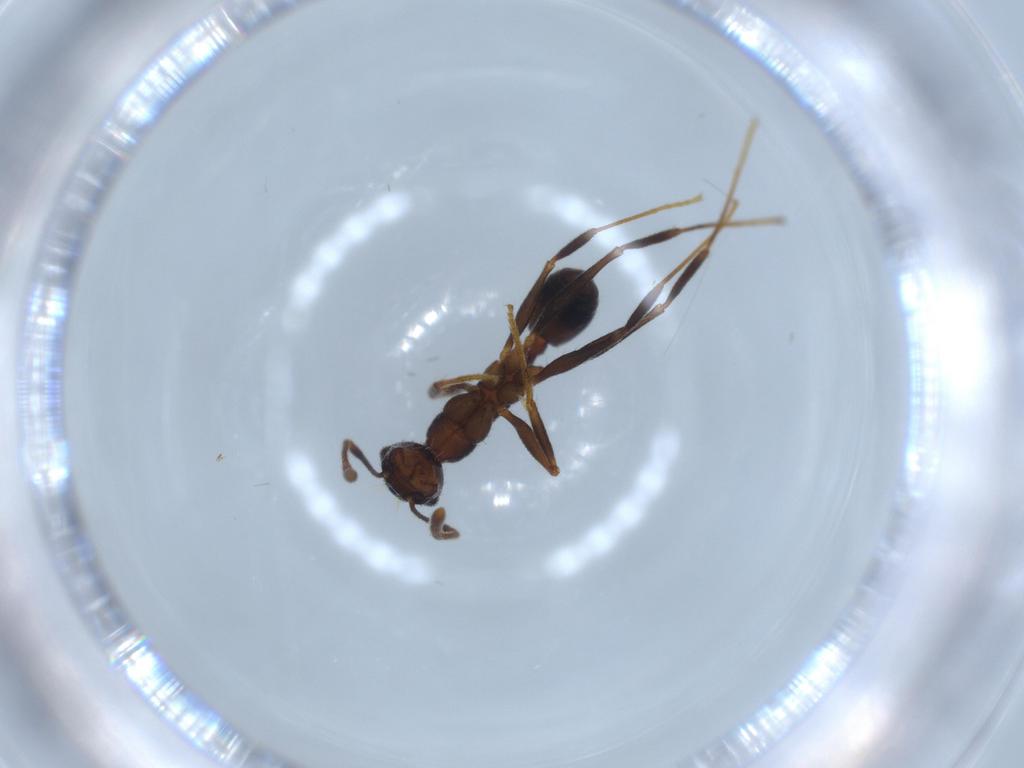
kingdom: Animalia
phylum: Arthropoda
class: Insecta
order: Hymenoptera
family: Formicidae
